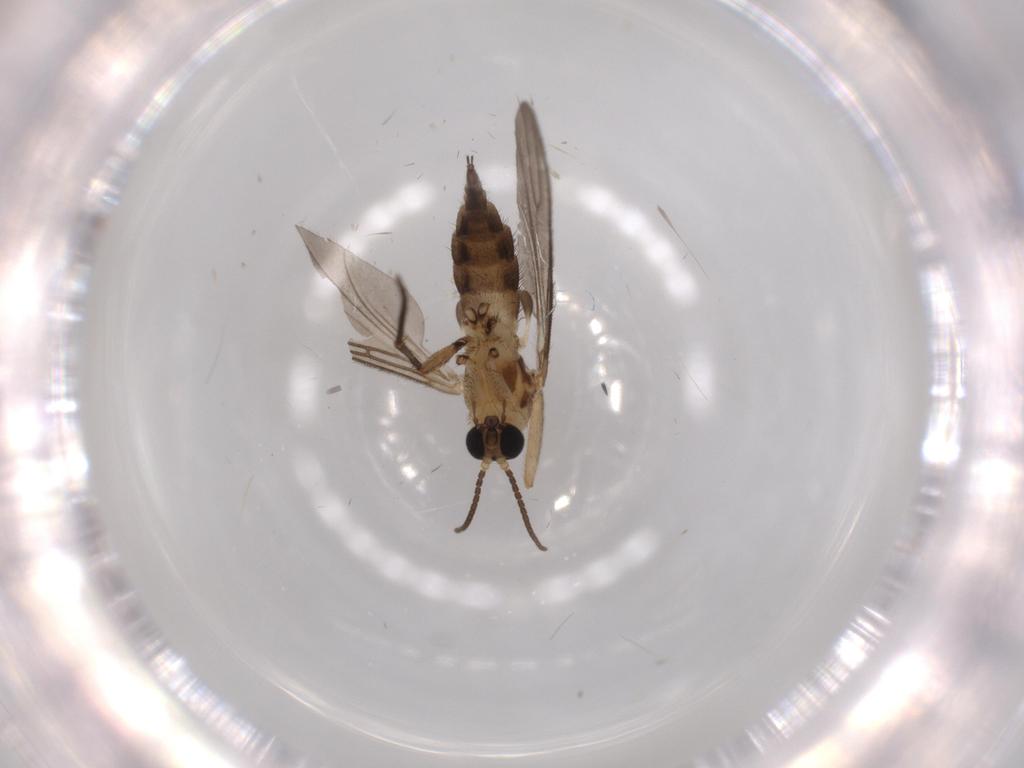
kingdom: Animalia
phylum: Arthropoda
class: Insecta
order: Diptera
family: Sciaridae
